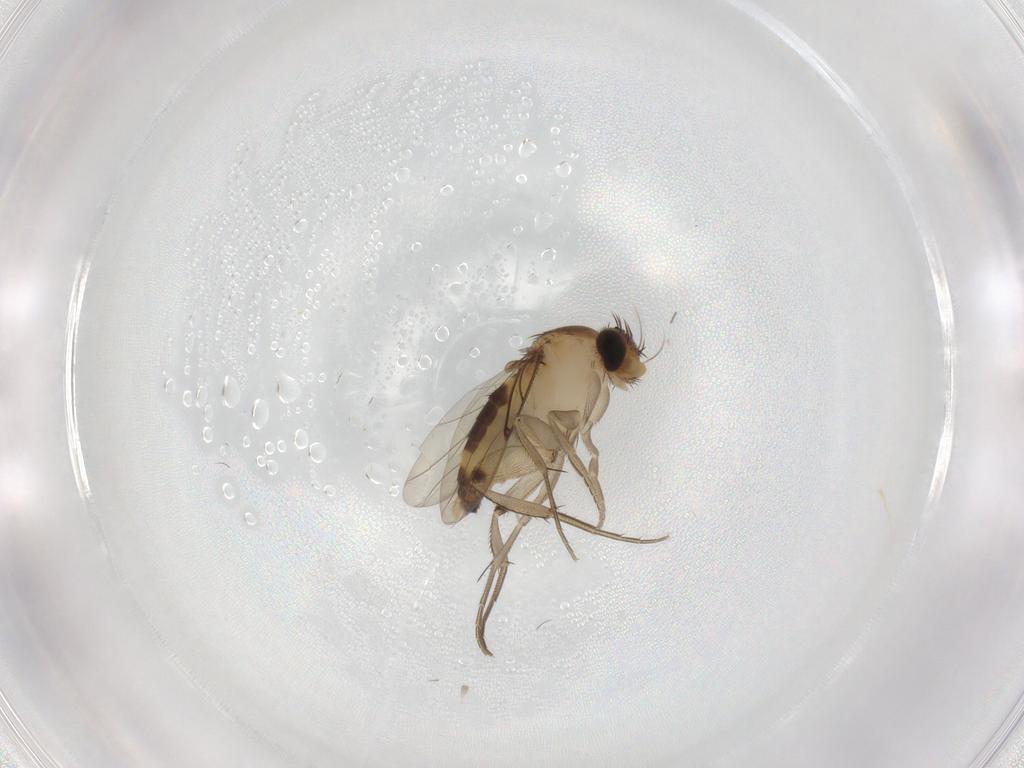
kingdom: Animalia
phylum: Arthropoda
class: Insecta
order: Diptera
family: Phoridae
